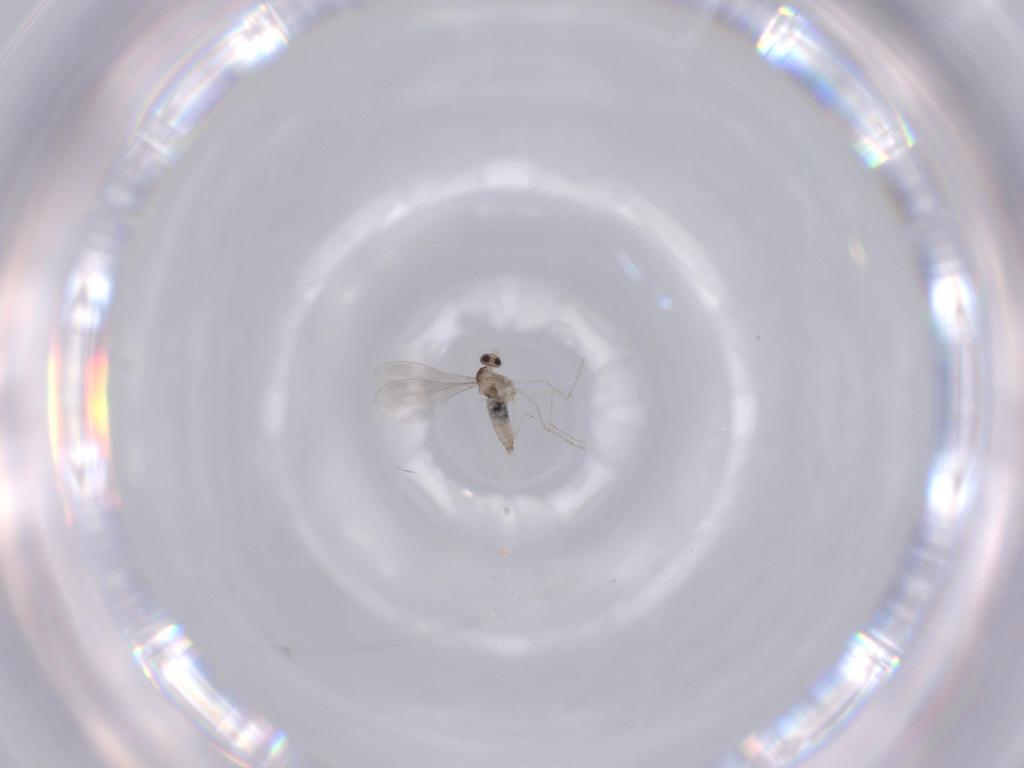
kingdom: Animalia
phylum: Arthropoda
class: Insecta
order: Diptera
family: Cecidomyiidae
